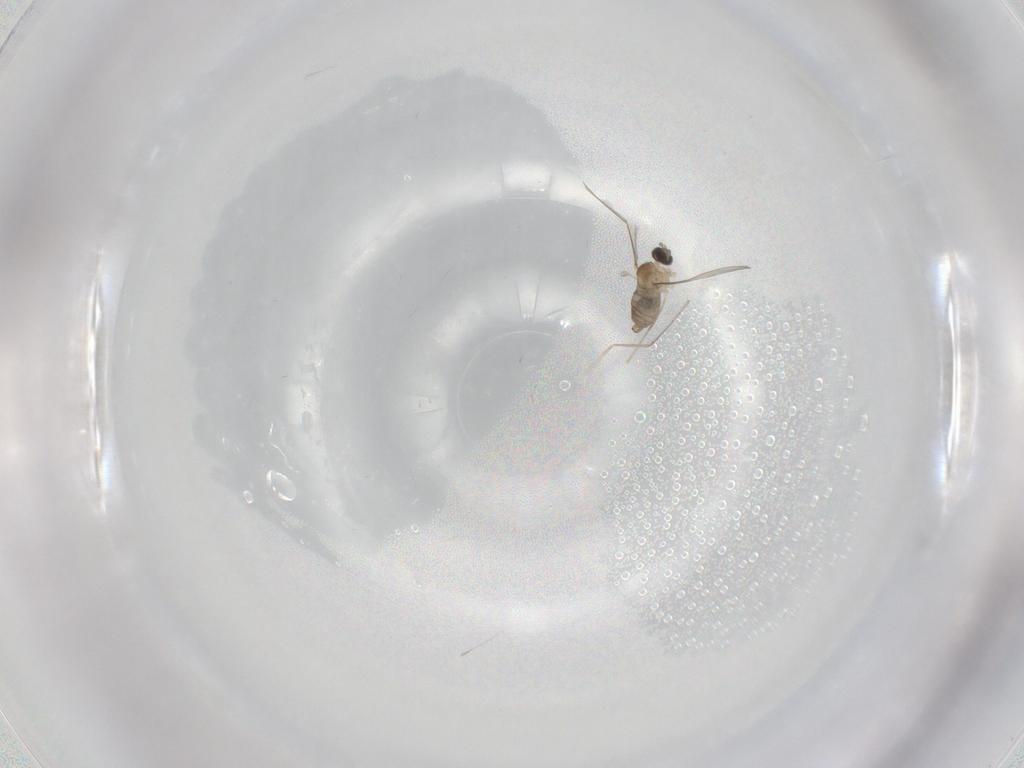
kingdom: Animalia
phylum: Arthropoda
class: Insecta
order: Diptera
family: Cecidomyiidae
